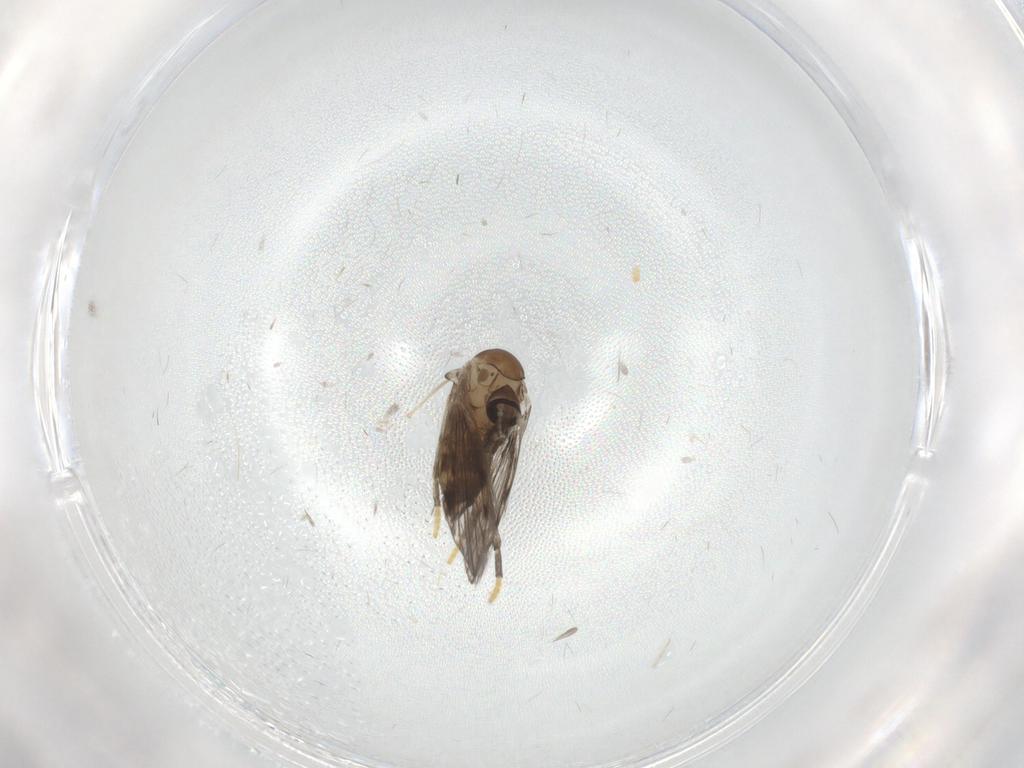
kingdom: Animalia
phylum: Arthropoda
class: Insecta
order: Diptera
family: Psychodidae
